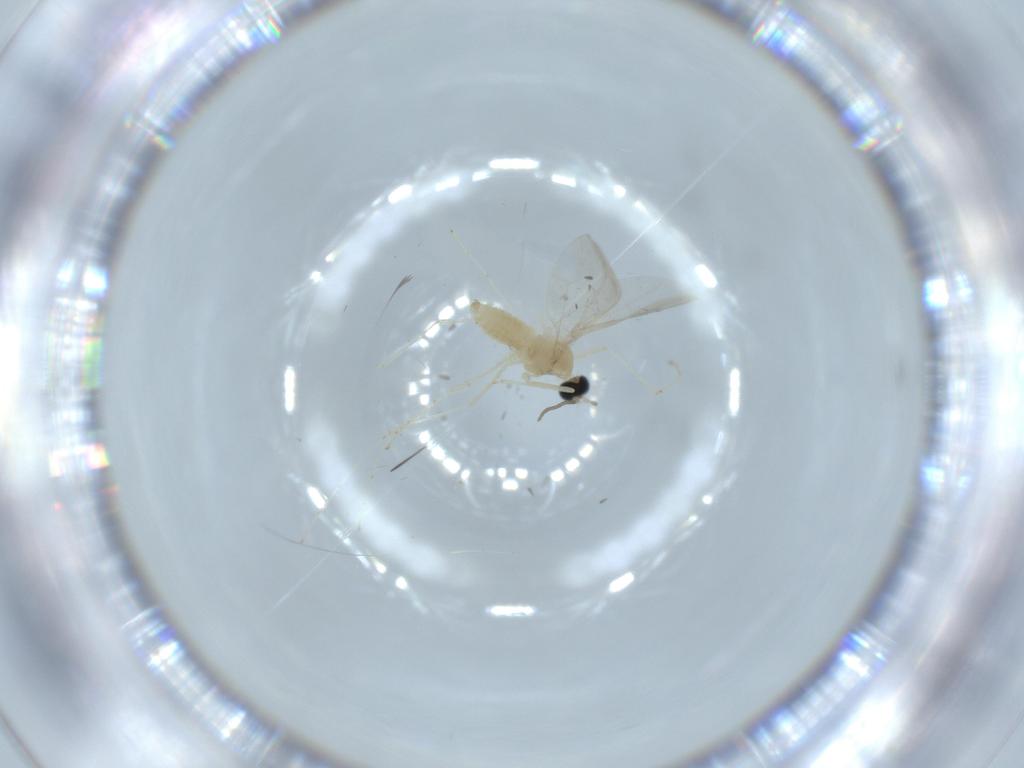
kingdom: Animalia
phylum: Arthropoda
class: Insecta
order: Diptera
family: Cecidomyiidae
